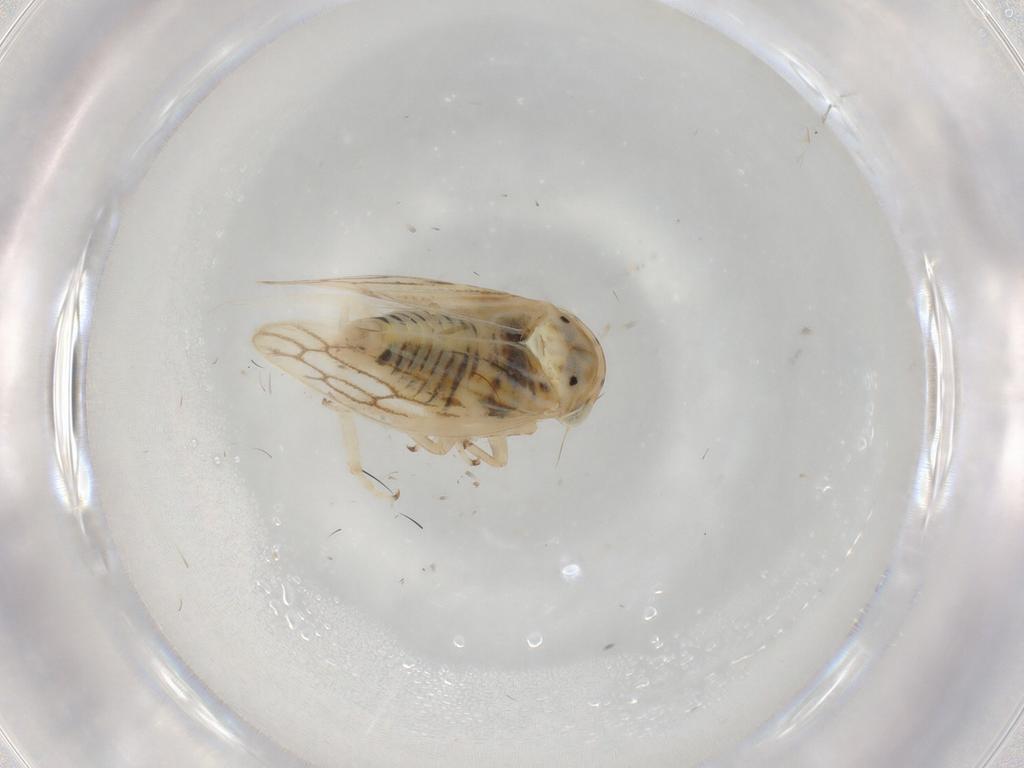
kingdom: Animalia
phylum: Arthropoda
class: Insecta
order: Hemiptera
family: Cicadellidae
